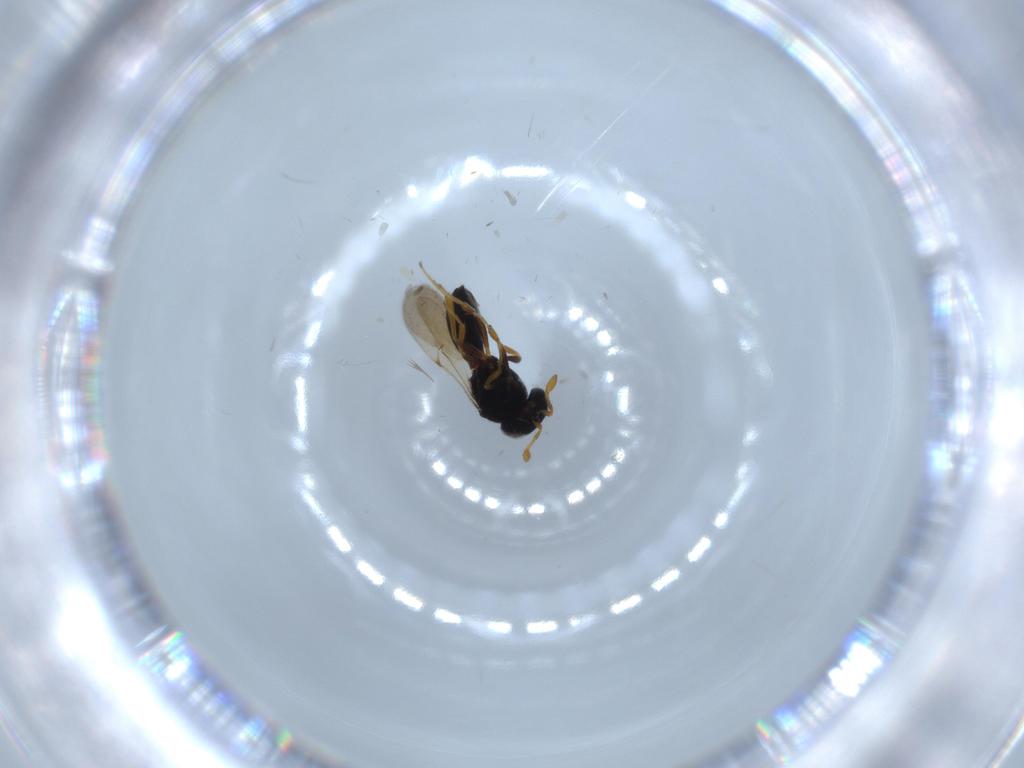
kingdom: Animalia
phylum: Arthropoda
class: Insecta
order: Hymenoptera
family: Scelionidae
